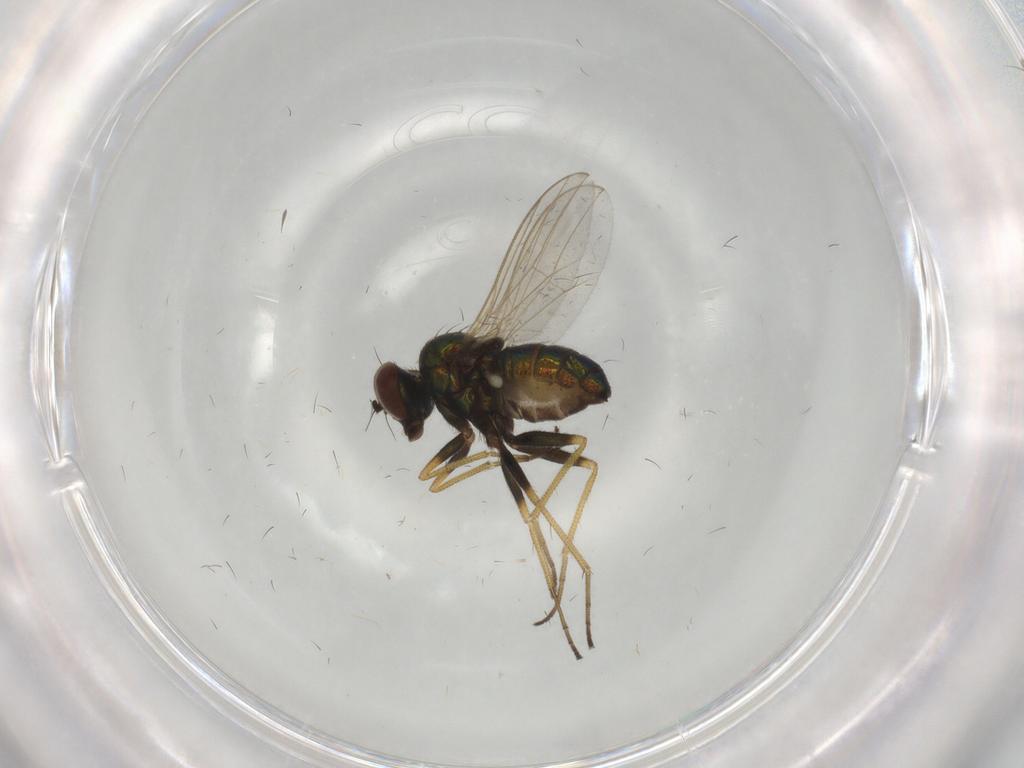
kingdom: Animalia
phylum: Arthropoda
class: Insecta
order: Diptera
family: Dolichopodidae
